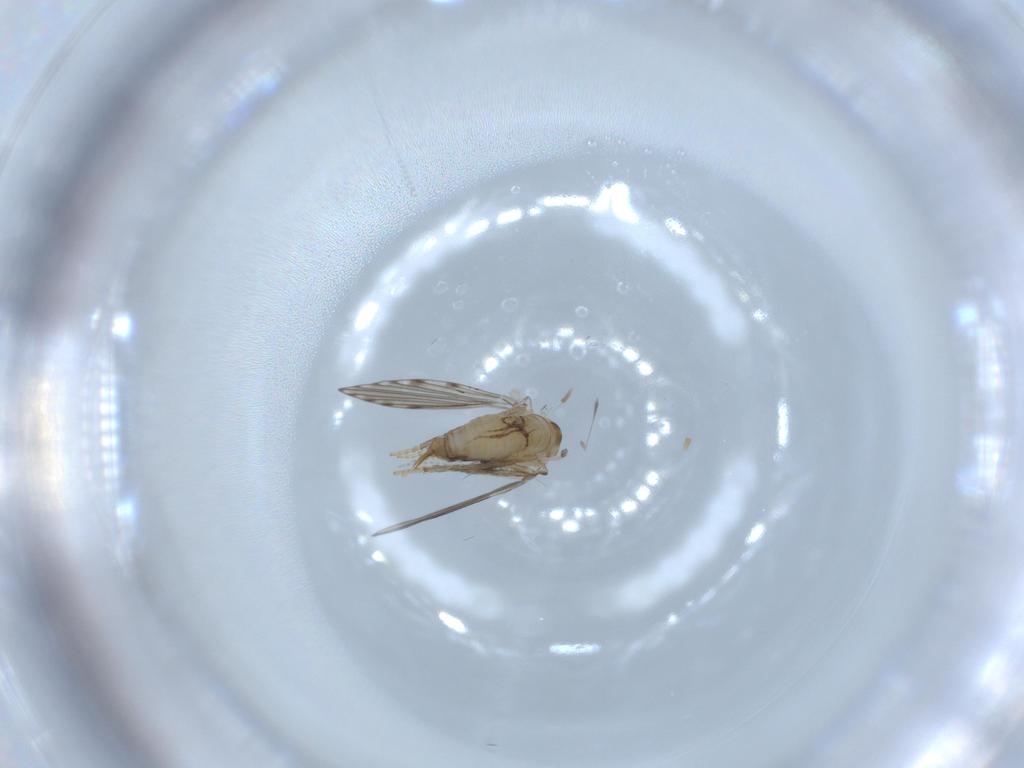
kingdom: Animalia
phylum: Arthropoda
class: Insecta
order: Diptera
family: Psychodidae
